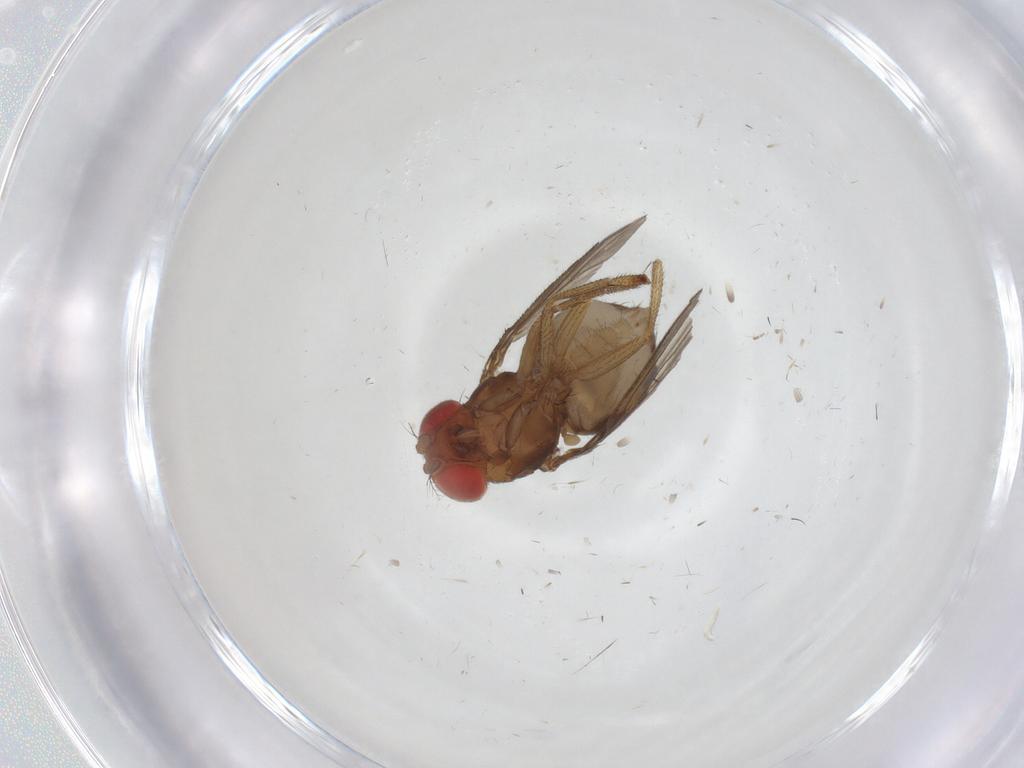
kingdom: Animalia
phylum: Arthropoda
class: Insecta
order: Diptera
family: Drosophilidae
